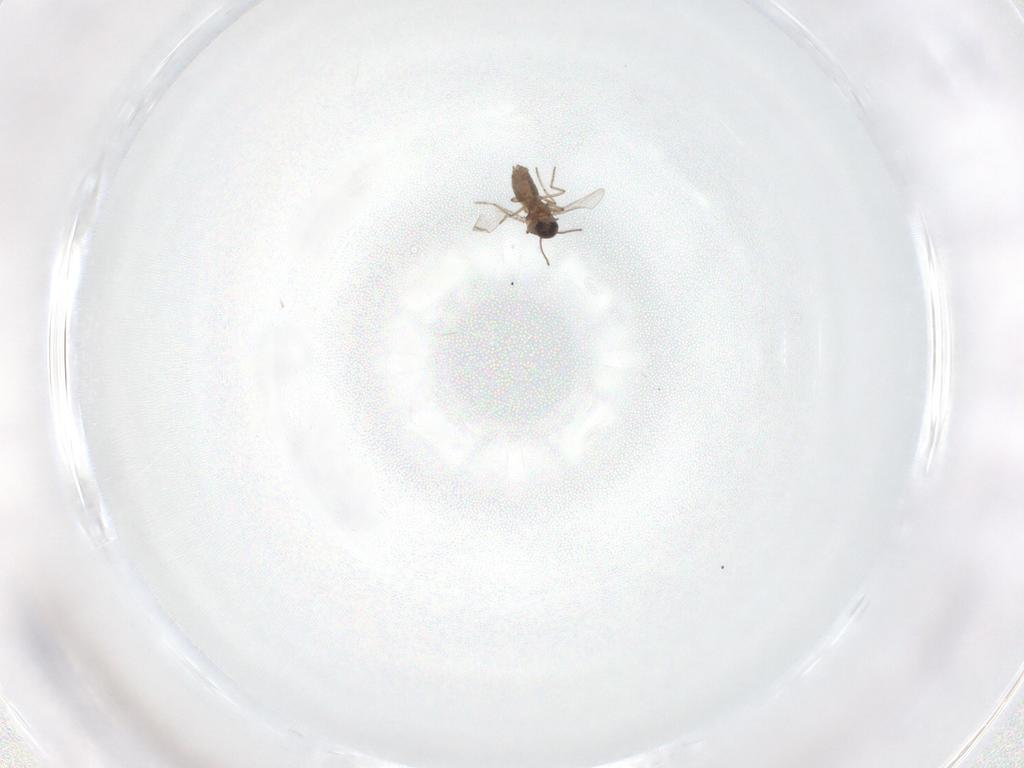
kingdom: Animalia
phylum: Arthropoda
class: Insecta
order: Diptera
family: Ceratopogonidae
